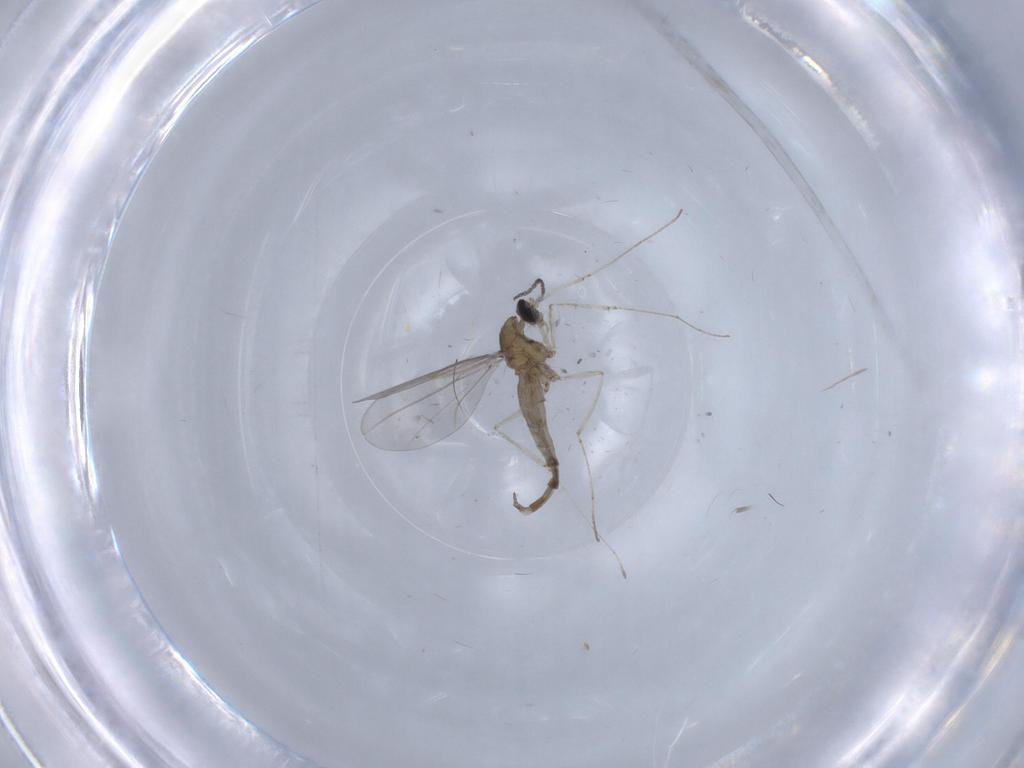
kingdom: Animalia
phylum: Arthropoda
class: Insecta
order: Diptera
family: Cecidomyiidae
